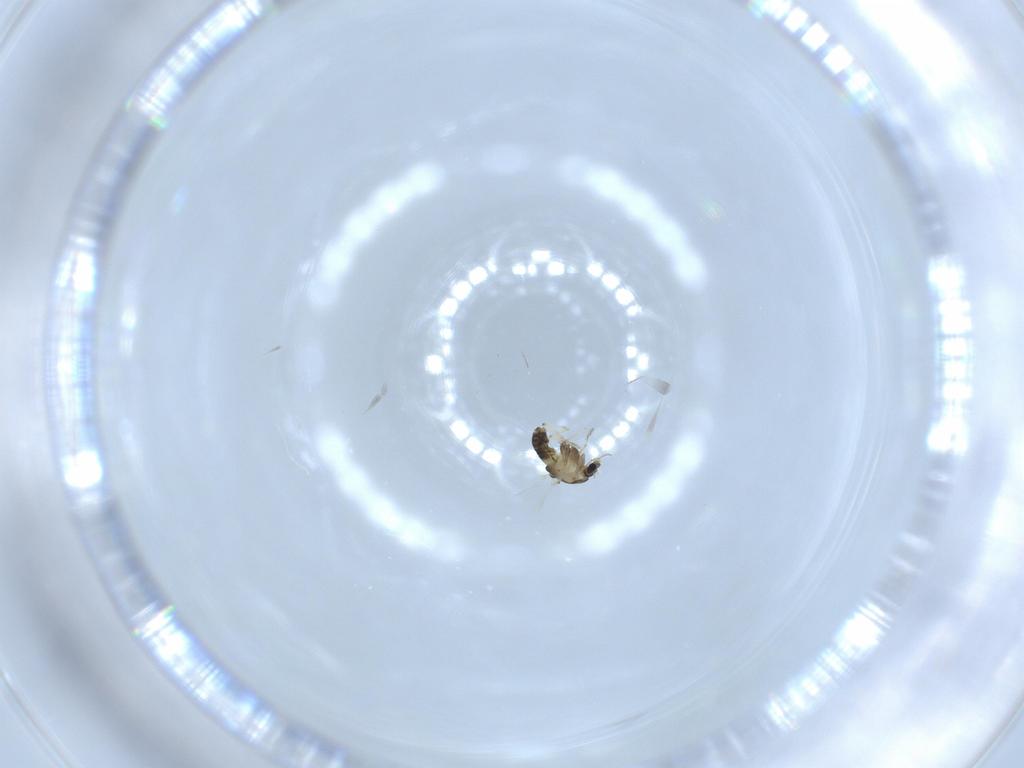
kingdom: Animalia
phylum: Arthropoda
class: Insecta
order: Diptera
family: Chironomidae
